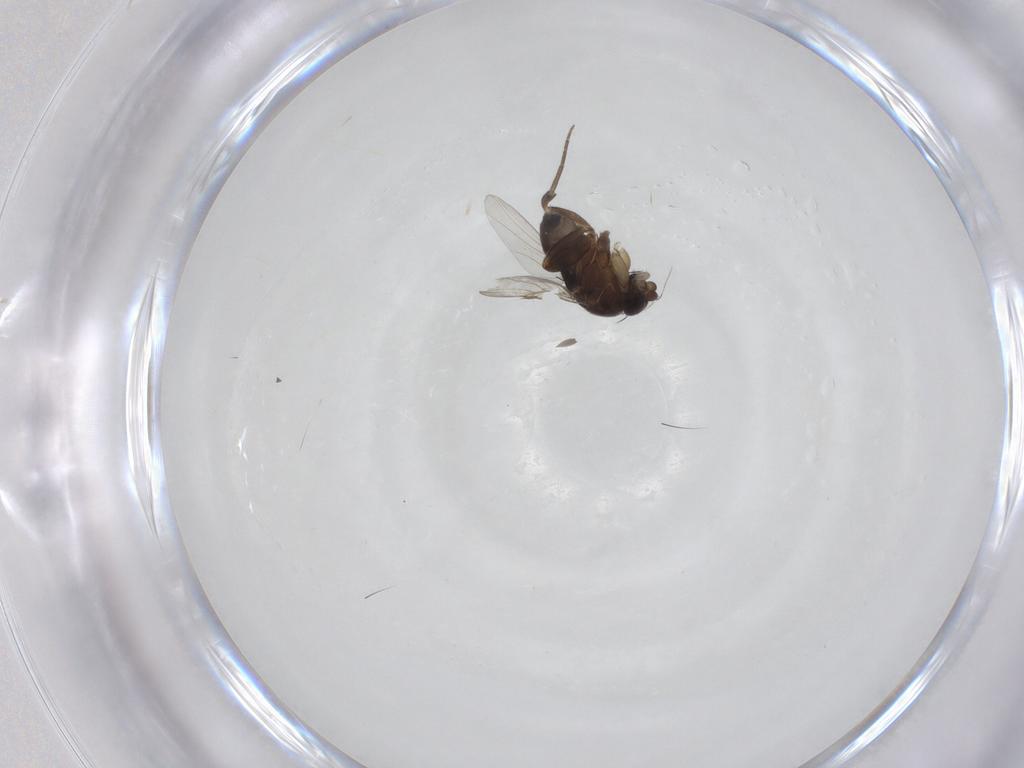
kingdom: Animalia
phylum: Arthropoda
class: Insecta
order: Diptera
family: Phoridae
